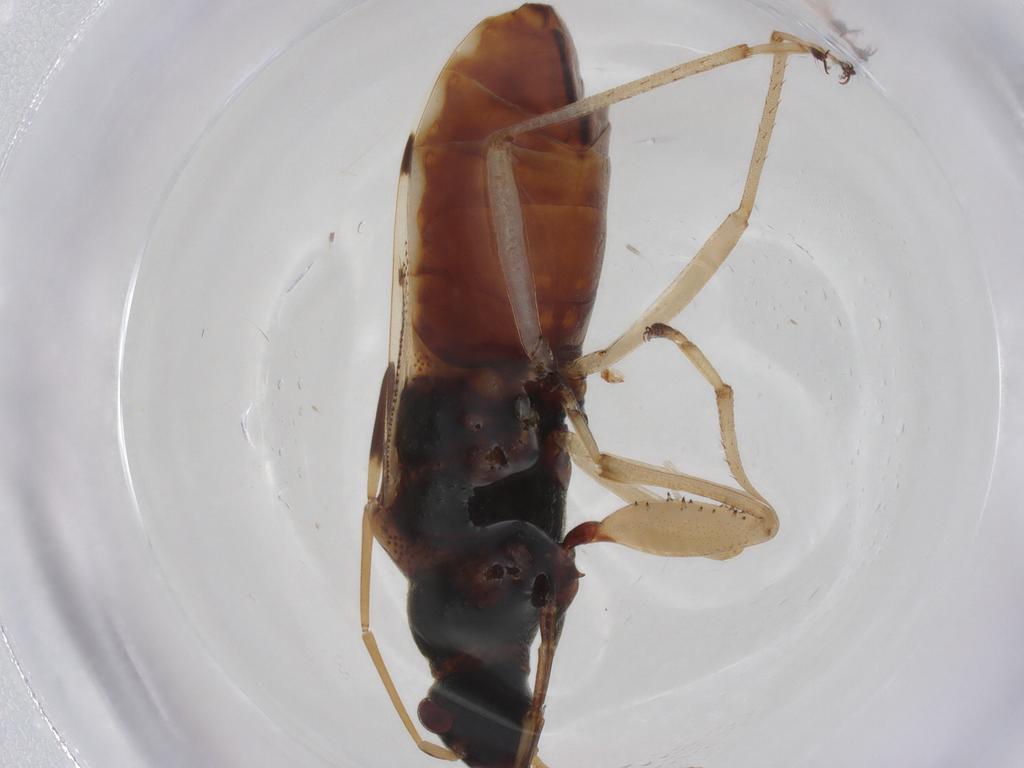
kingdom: Animalia
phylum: Arthropoda
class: Insecta
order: Hemiptera
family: Rhyparochromidae
